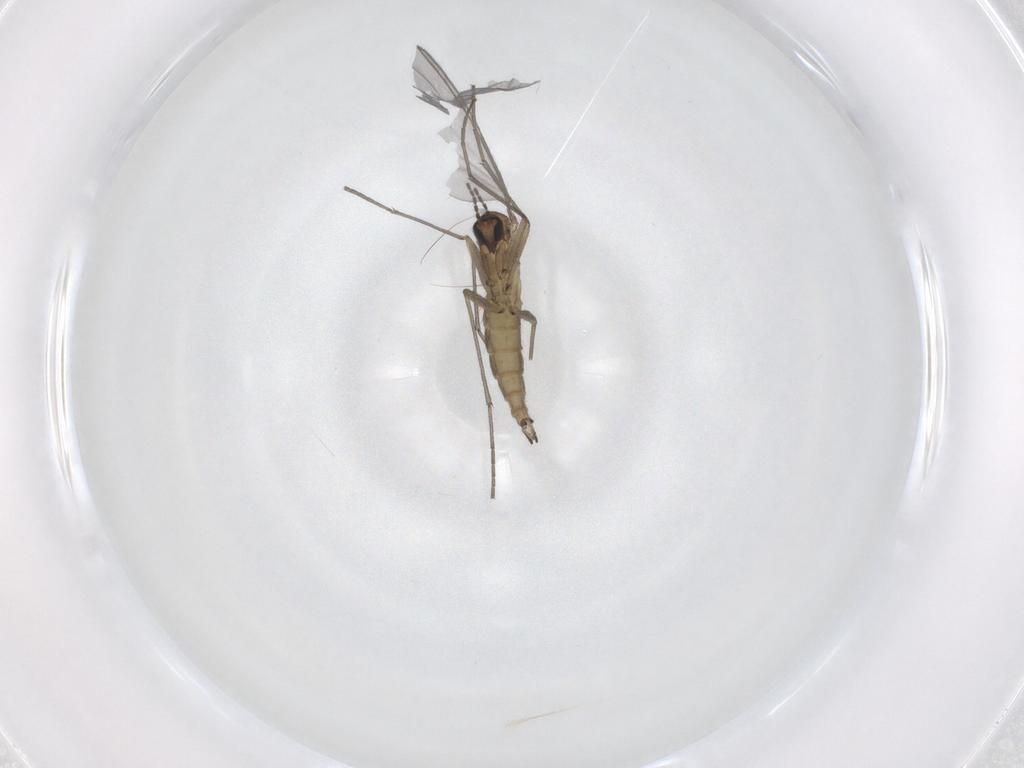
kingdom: Animalia
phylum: Arthropoda
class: Insecta
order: Diptera
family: Sciaridae
